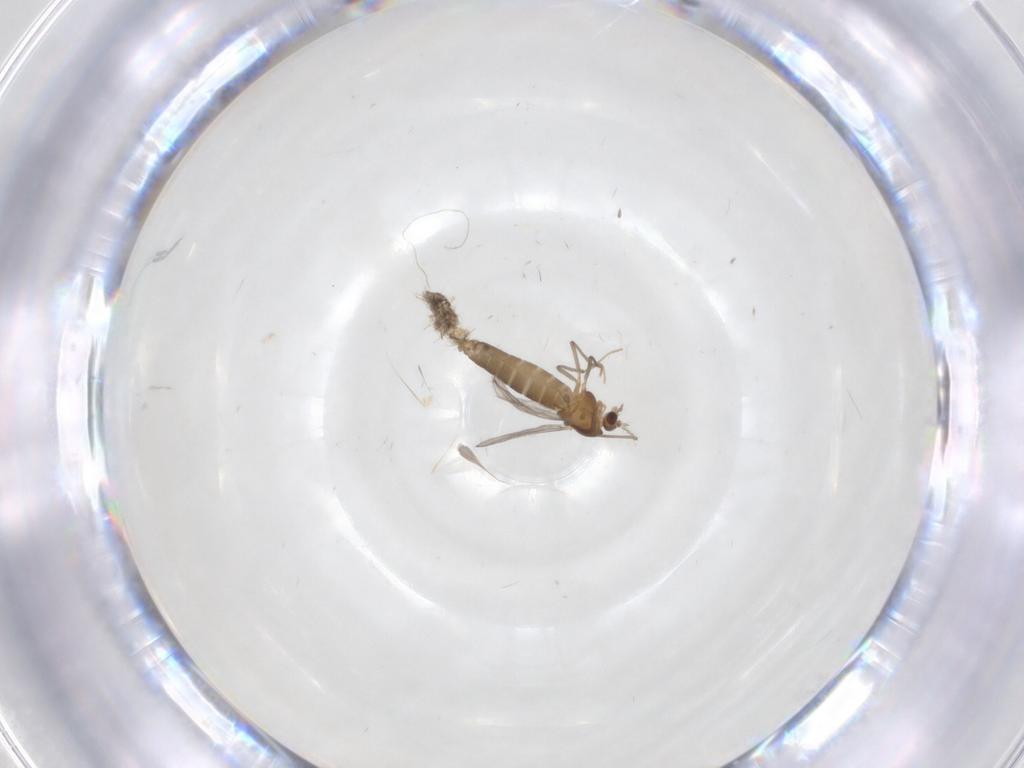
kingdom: Animalia
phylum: Arthropoda
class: Insecta
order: Diptera
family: Chironomidae
